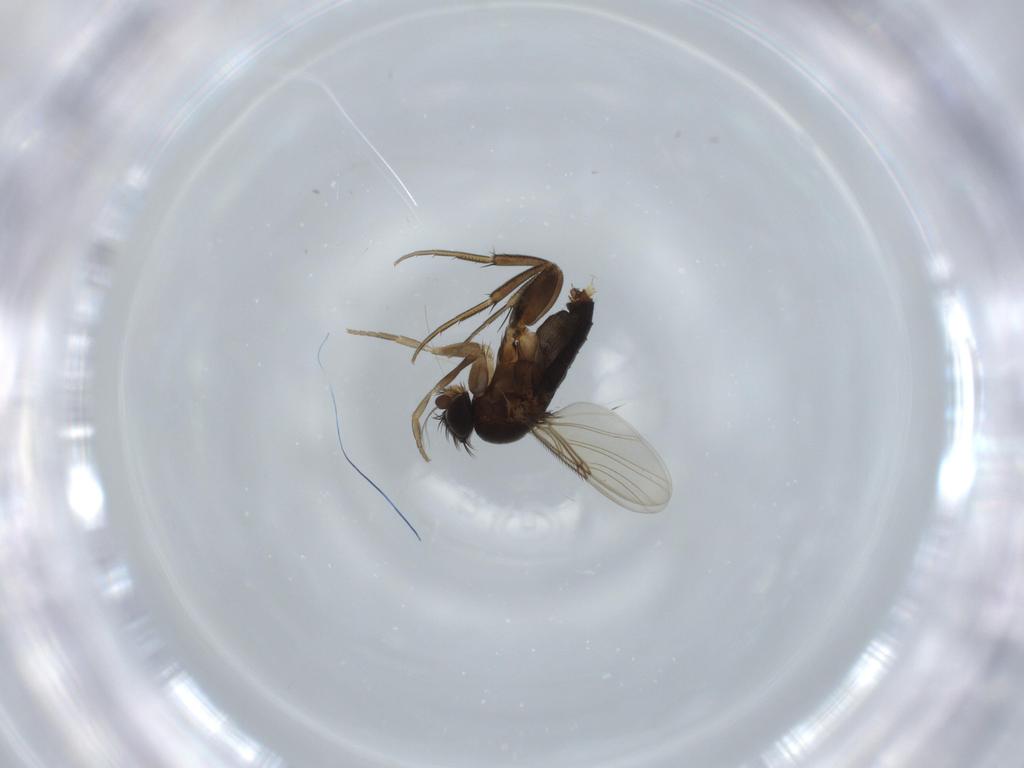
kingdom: Animalia
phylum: Arthropoda
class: Insecta
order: Diptera
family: Phoridae
